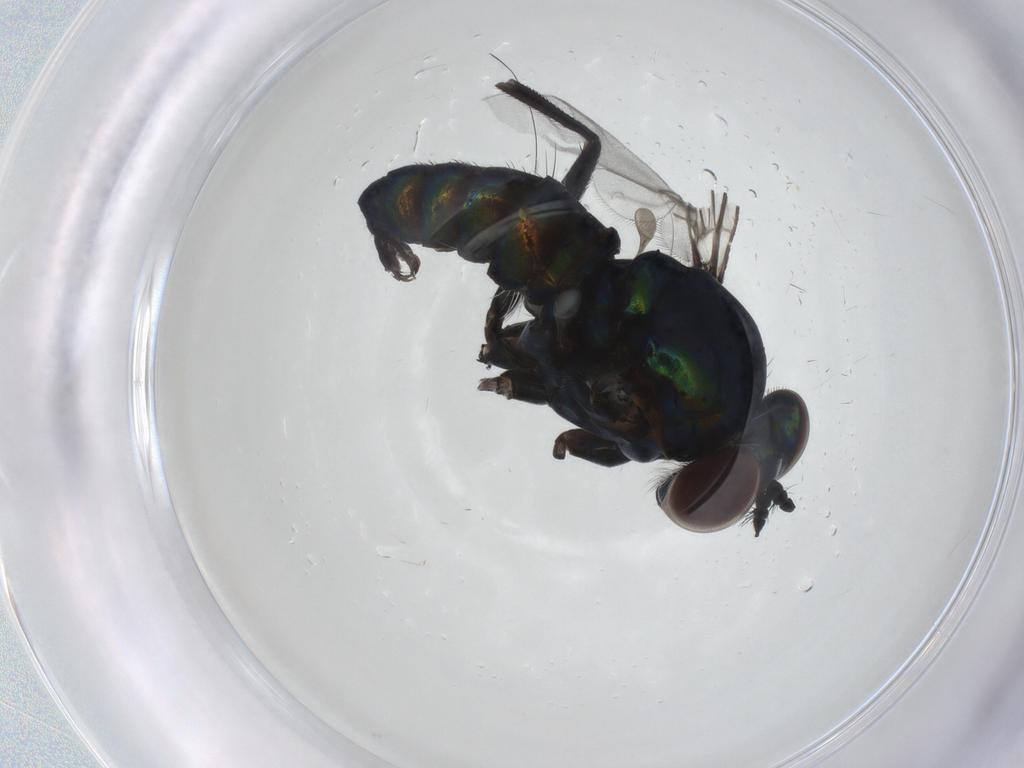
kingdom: Animalia
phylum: Arthropoda
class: Insecta
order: Diptera
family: Dolichopodidae
